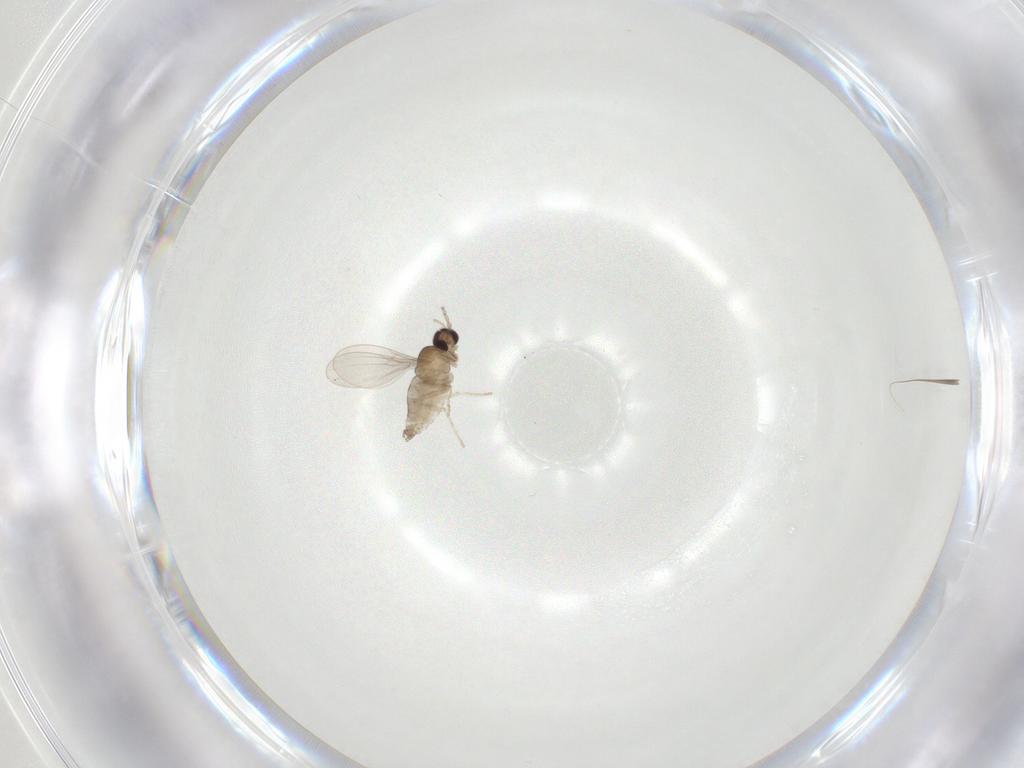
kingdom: Animalia
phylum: Arthropoda
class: Insecta
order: Diptera
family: Cecidomyiidae
